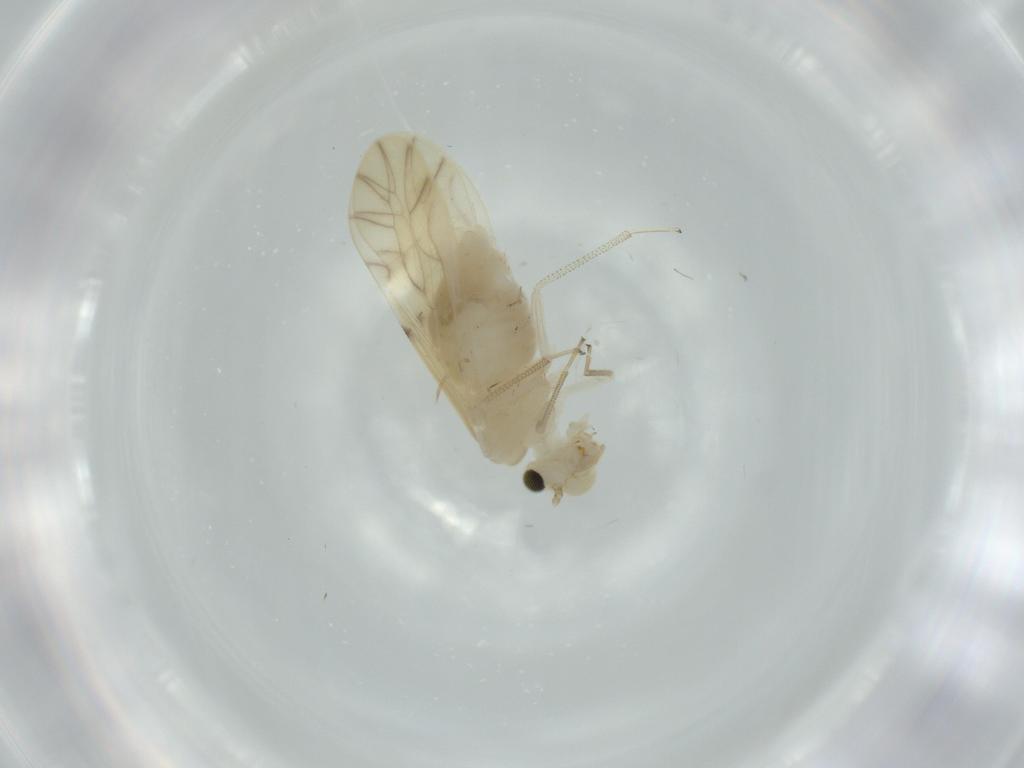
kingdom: Animalia
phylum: Arthropoda
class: Insecta
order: Psocodea
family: Caeciliusidae
